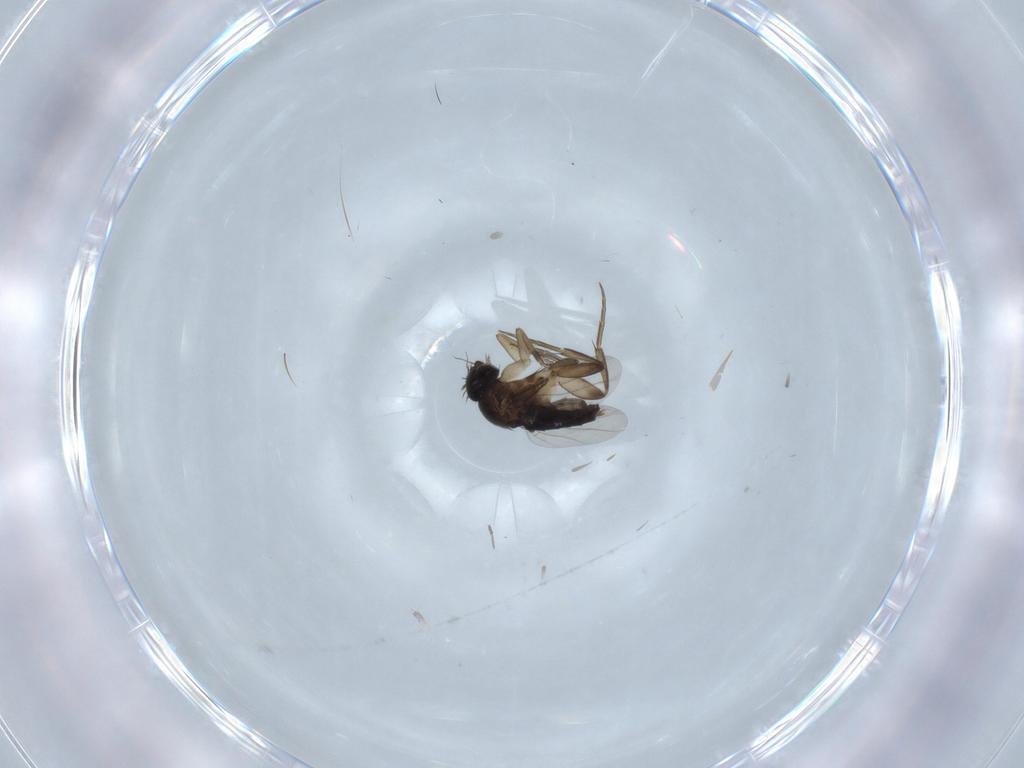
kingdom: Animalia
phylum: Arthropoda
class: Insecta
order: Diptera
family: Phoridae
